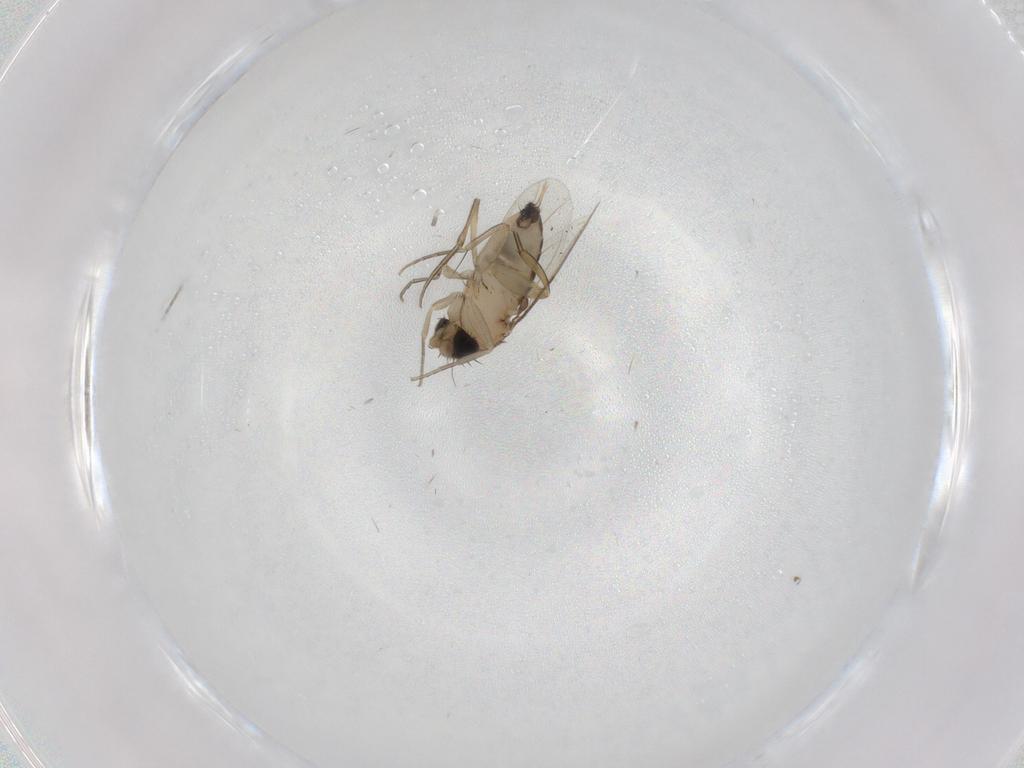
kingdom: Animalia
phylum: Arthropoda
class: Insecta
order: Diptera
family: Phoridae
